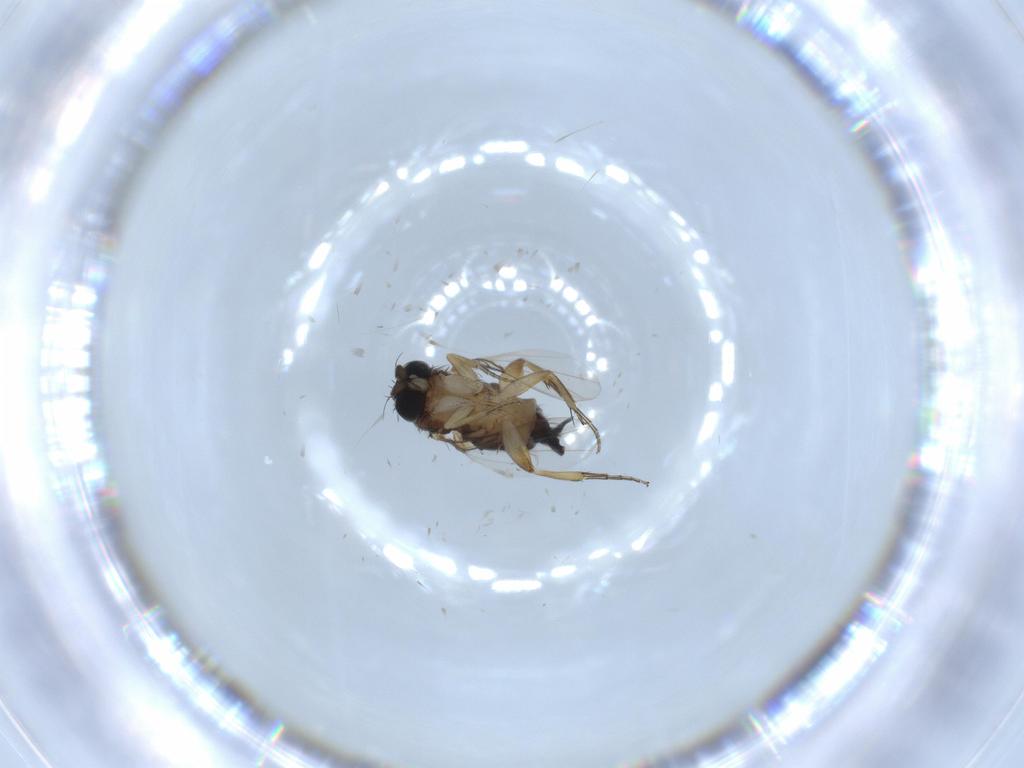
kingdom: Animalia
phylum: Arthropoda
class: Insecta
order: Diptera
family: Phoridae
